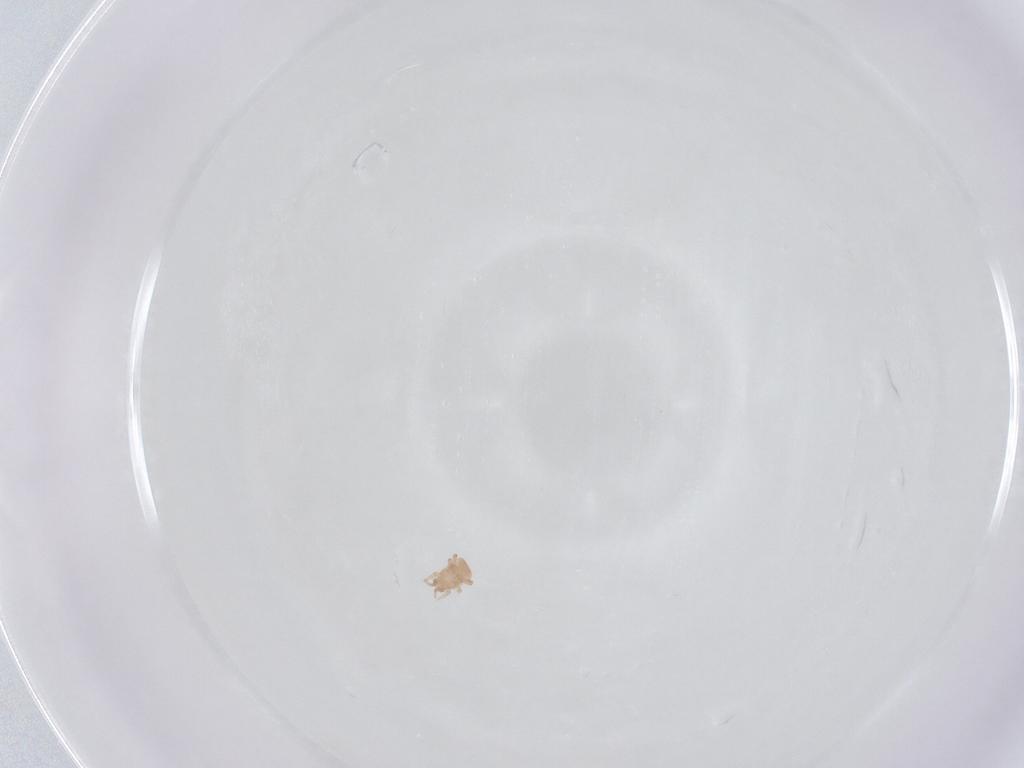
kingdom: Animalia
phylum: Arthropoda
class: Arachnida
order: Mesostigmata
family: Digamasellidae
